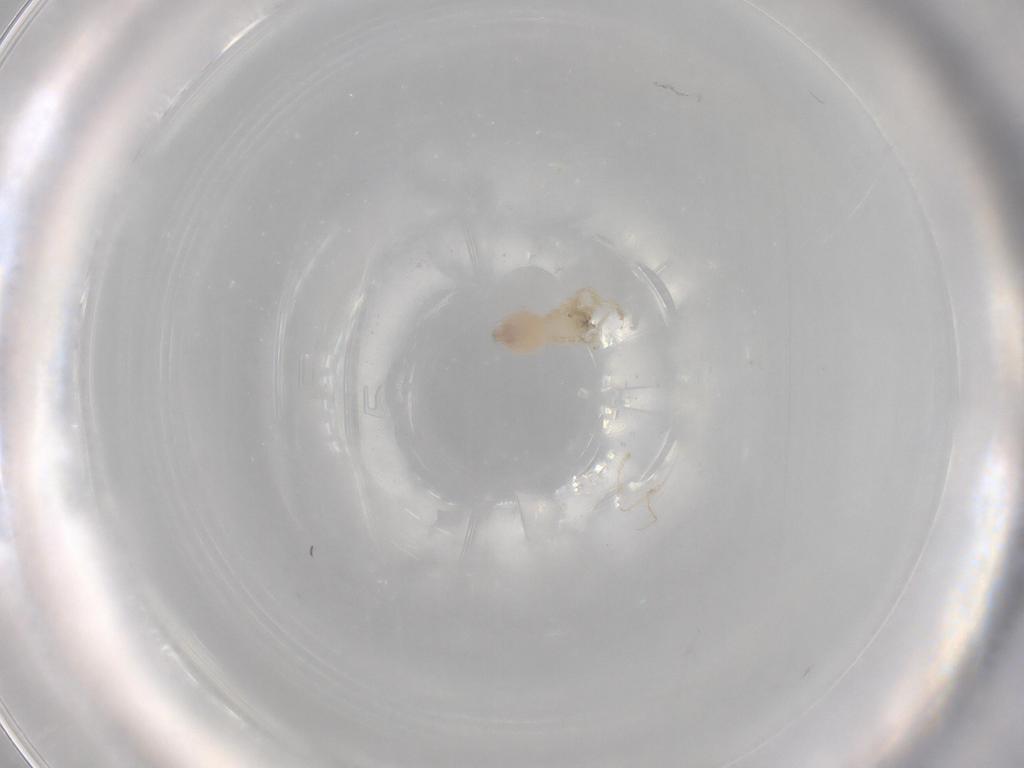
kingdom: Animalia
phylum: Arthropoda
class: Arachnida
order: Araneae
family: Oonopidae
